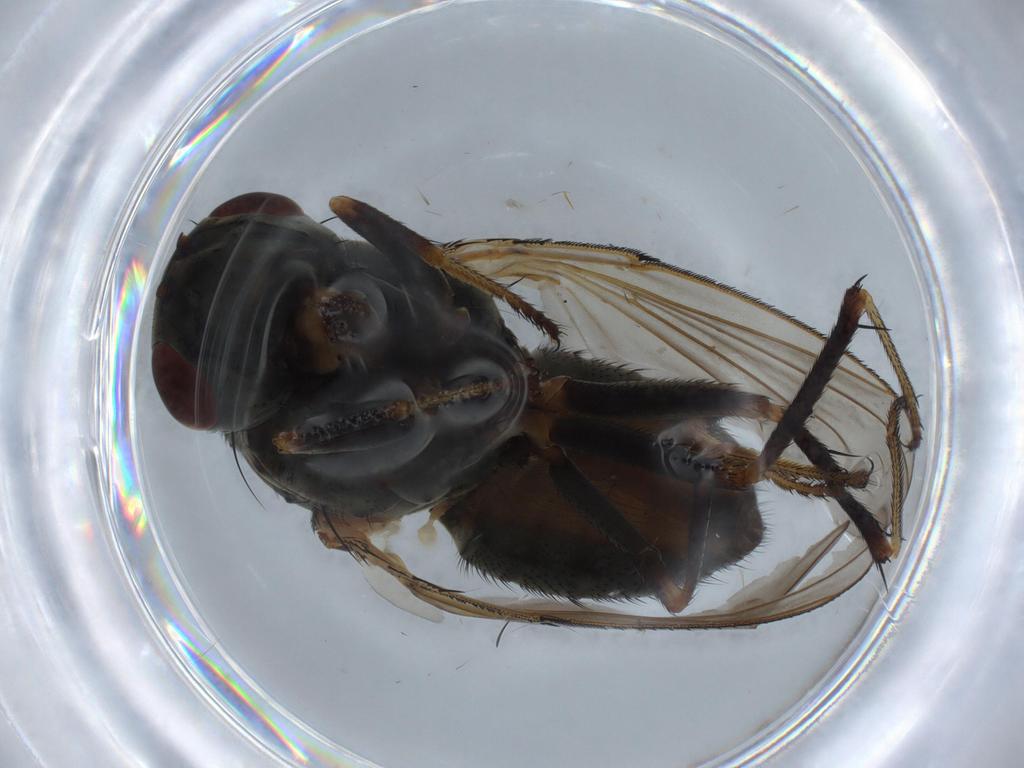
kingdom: Animalia
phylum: Arthropoda
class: Insecta
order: Diptera
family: Ephydridae
